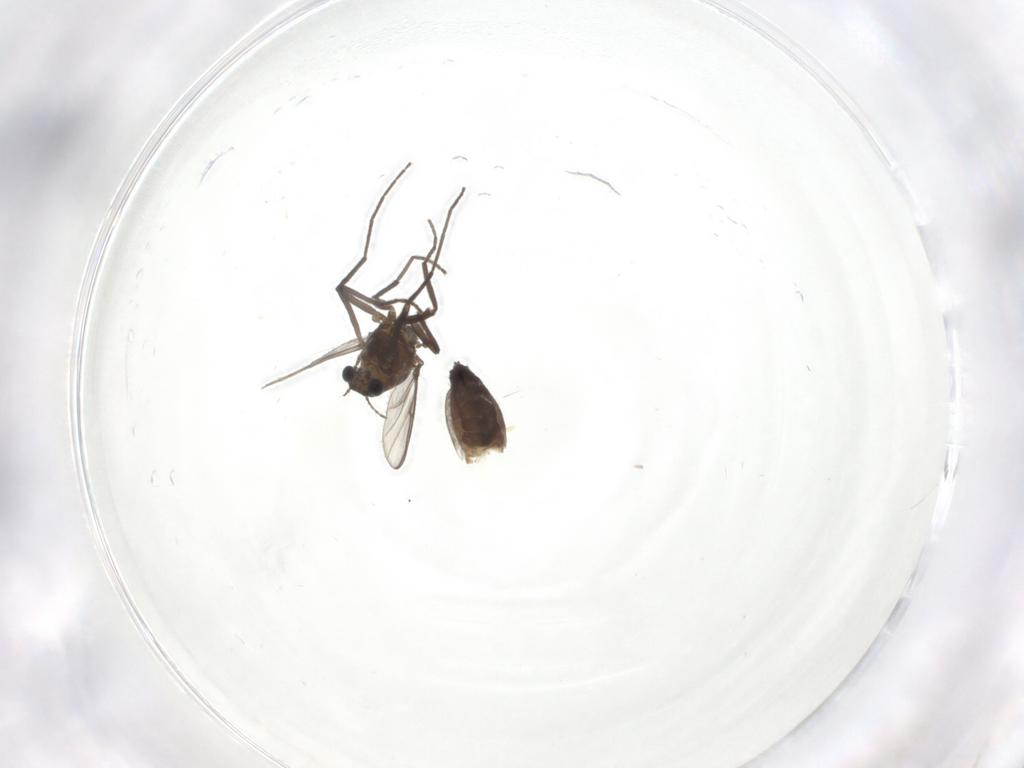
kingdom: Animalia
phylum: Arthropoda
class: Insecta
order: Diptera
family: Chironomidae
